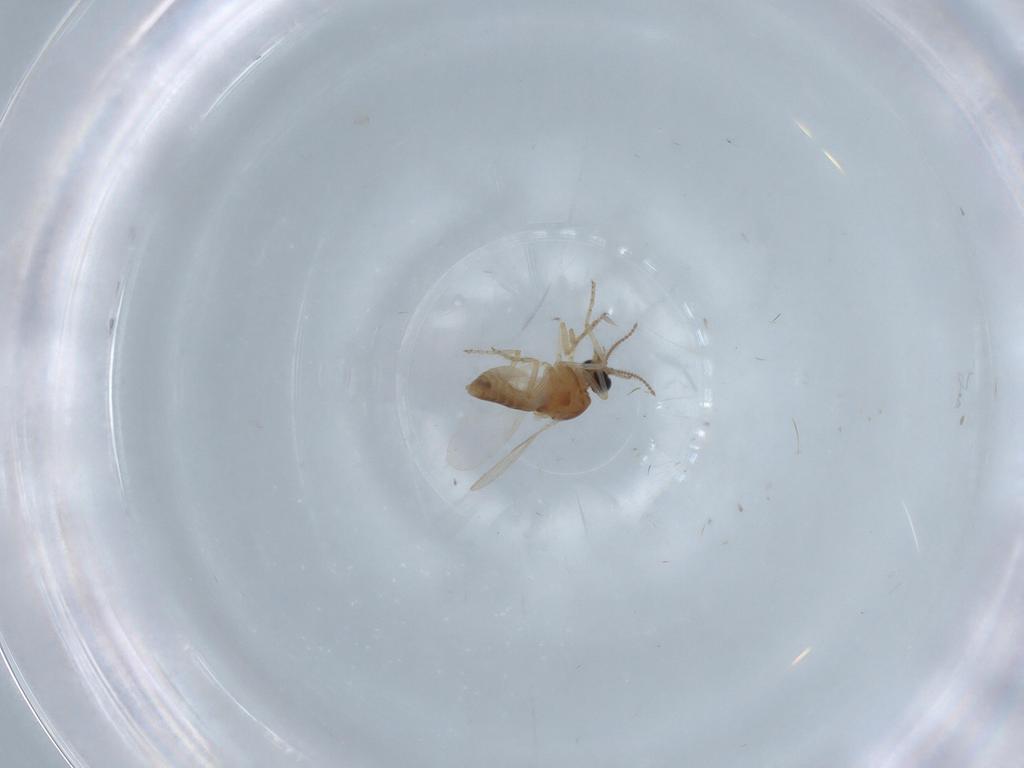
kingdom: Animalia
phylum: Arthropoda
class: Insecta
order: Diptera
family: Ceratopogonidae
